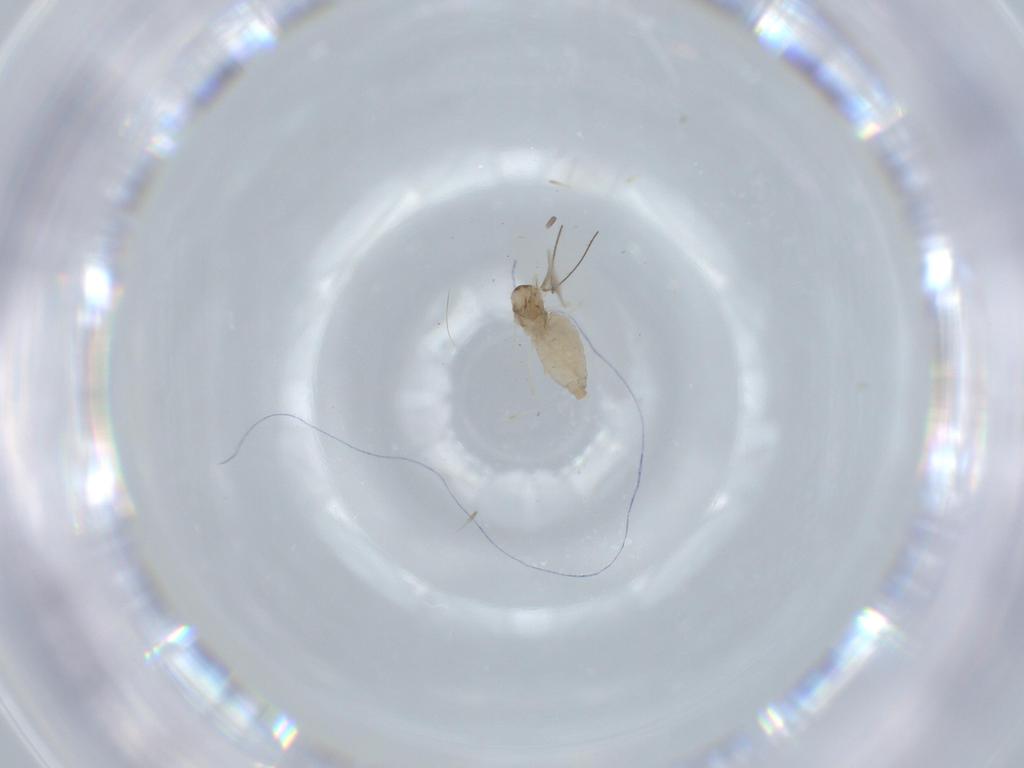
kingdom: Animalia
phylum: Arthropoda
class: Insecta
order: Diptera
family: Cecidomyiidae
